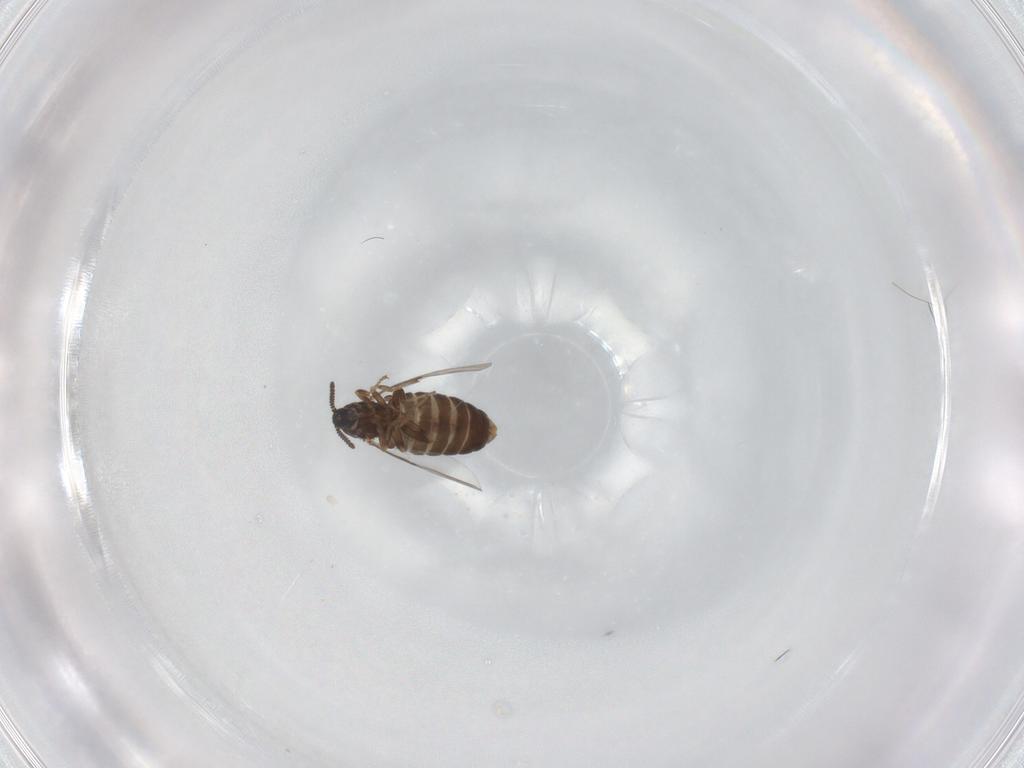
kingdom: Animalia
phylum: Arthropoda
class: Insecta
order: Diptera
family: Scatopsidae
